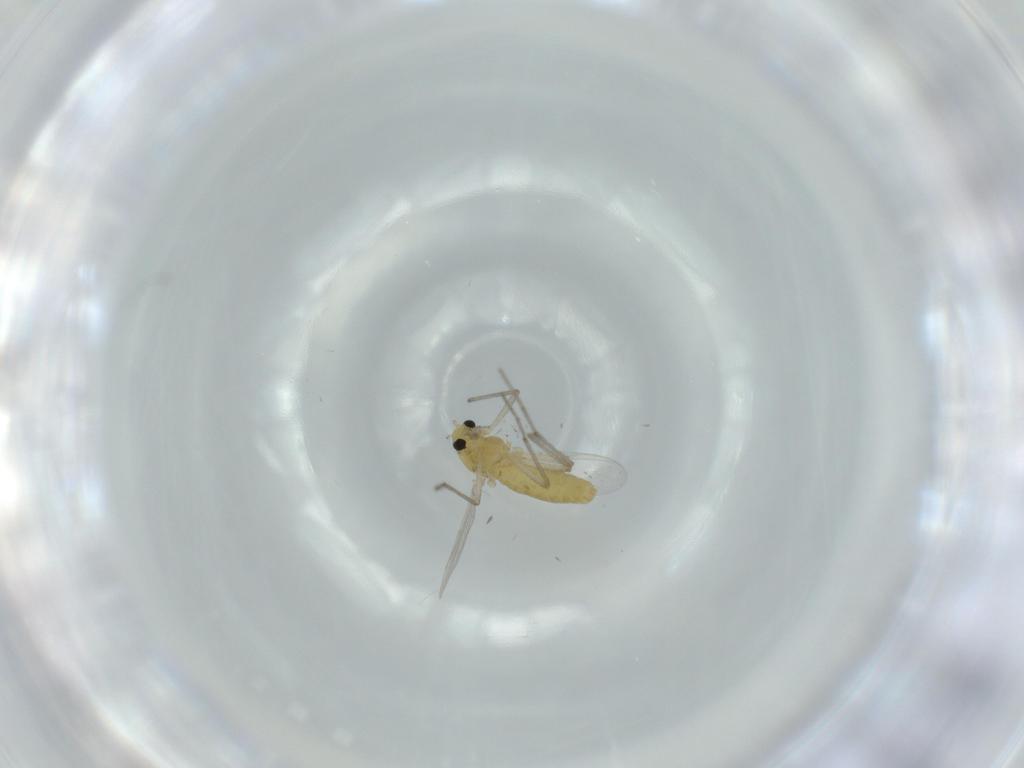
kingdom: Animalia
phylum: Arthropoda
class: Insecta
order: Diptera
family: Chironomidae
